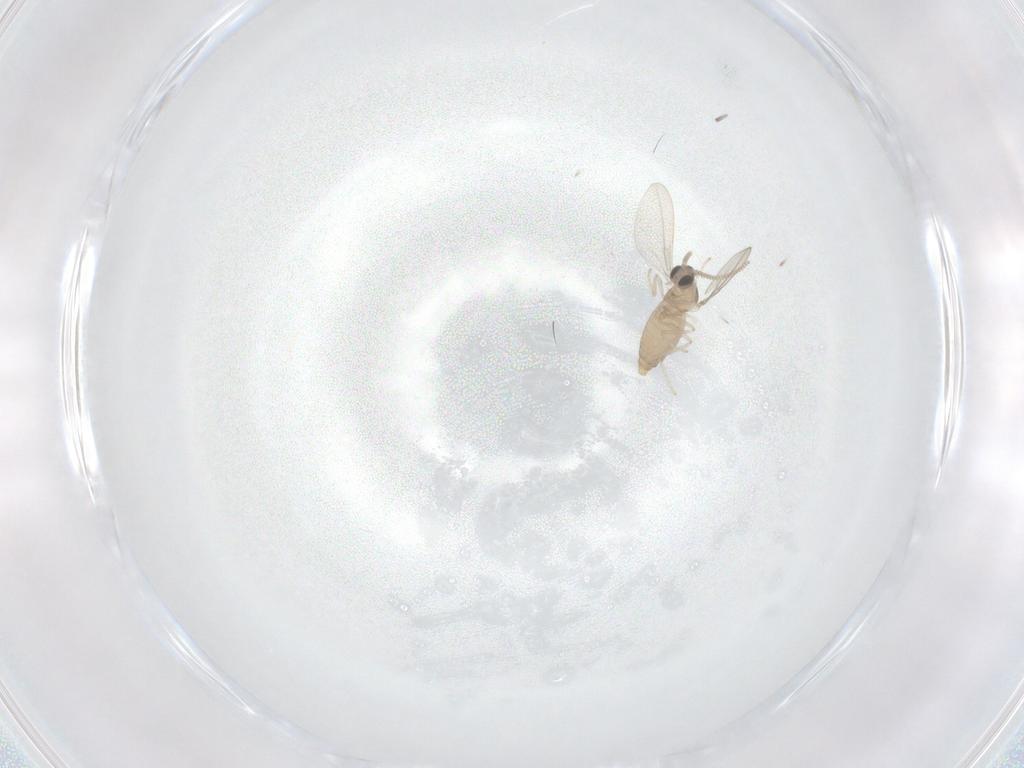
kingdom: Animalia
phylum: Arthropoda
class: Insecta
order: Diptera
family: Cecidomyiidae
